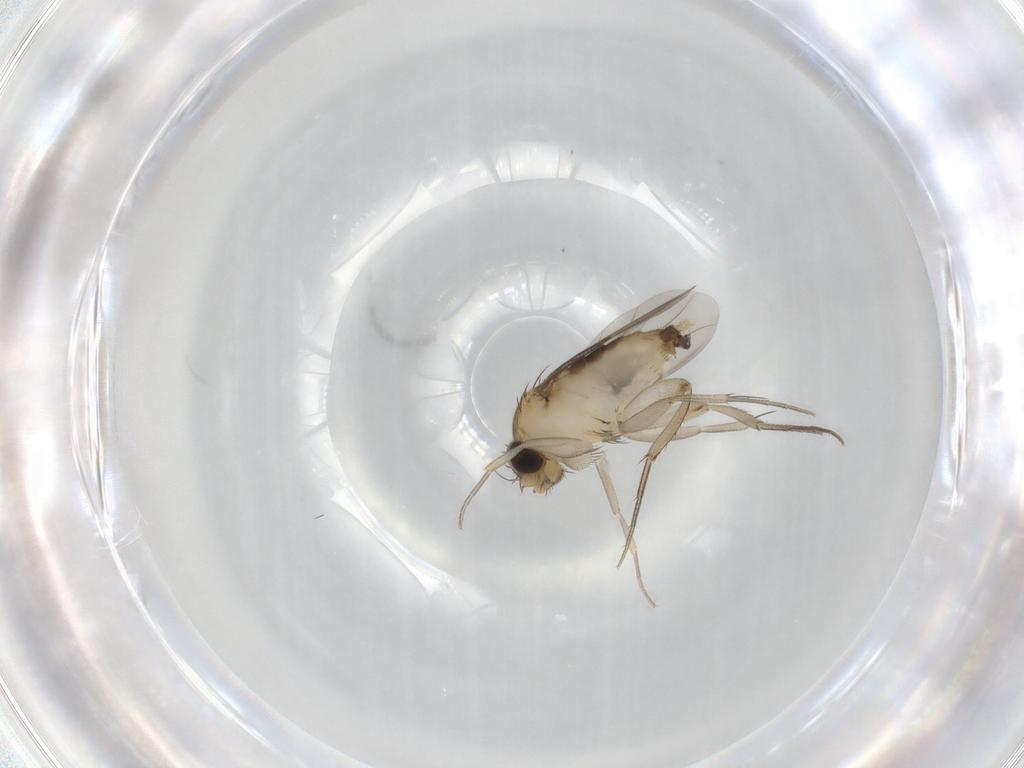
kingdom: Animalia
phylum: Arthropoda
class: Insecta
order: Diptera
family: Phoridae
